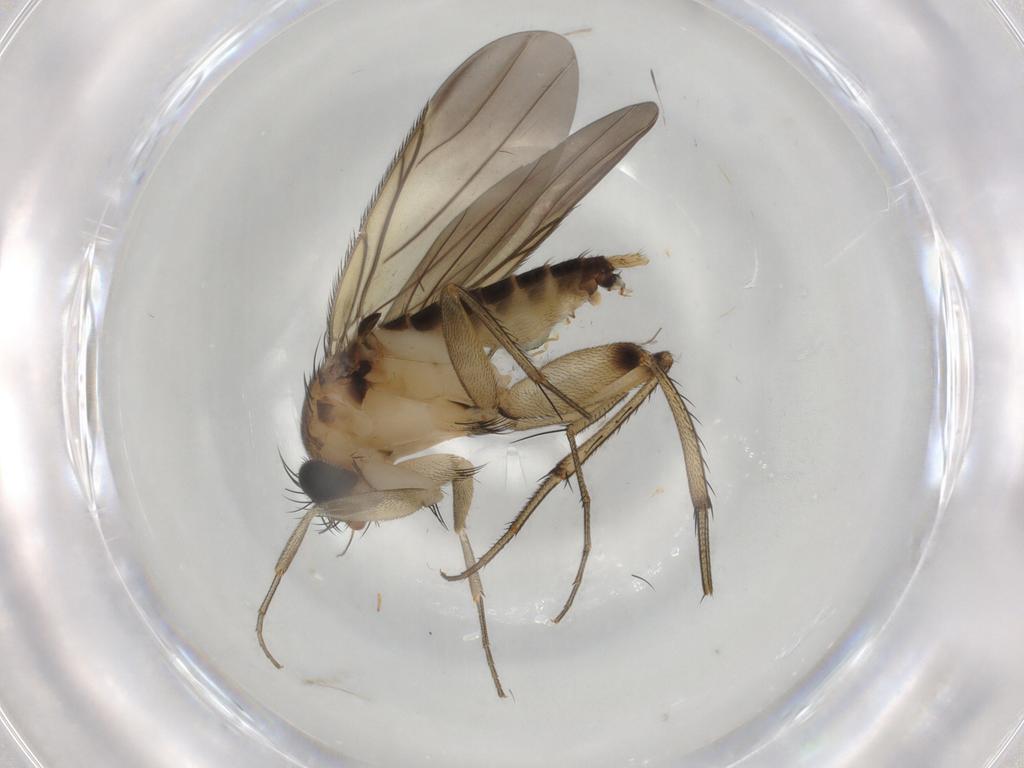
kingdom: Animalia
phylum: Arthropoda
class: Insecta
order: Diptera
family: Phoridae
